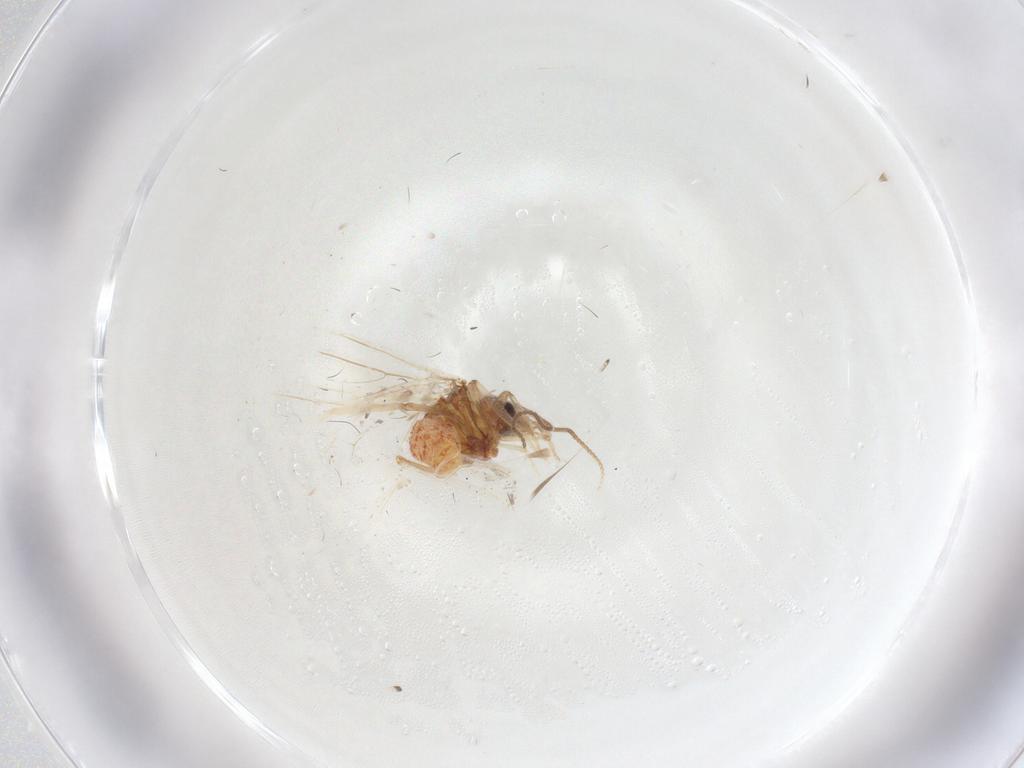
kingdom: Animalia
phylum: Arthropoda
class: Insecta
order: Neuroptera
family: Coniopterygidae
